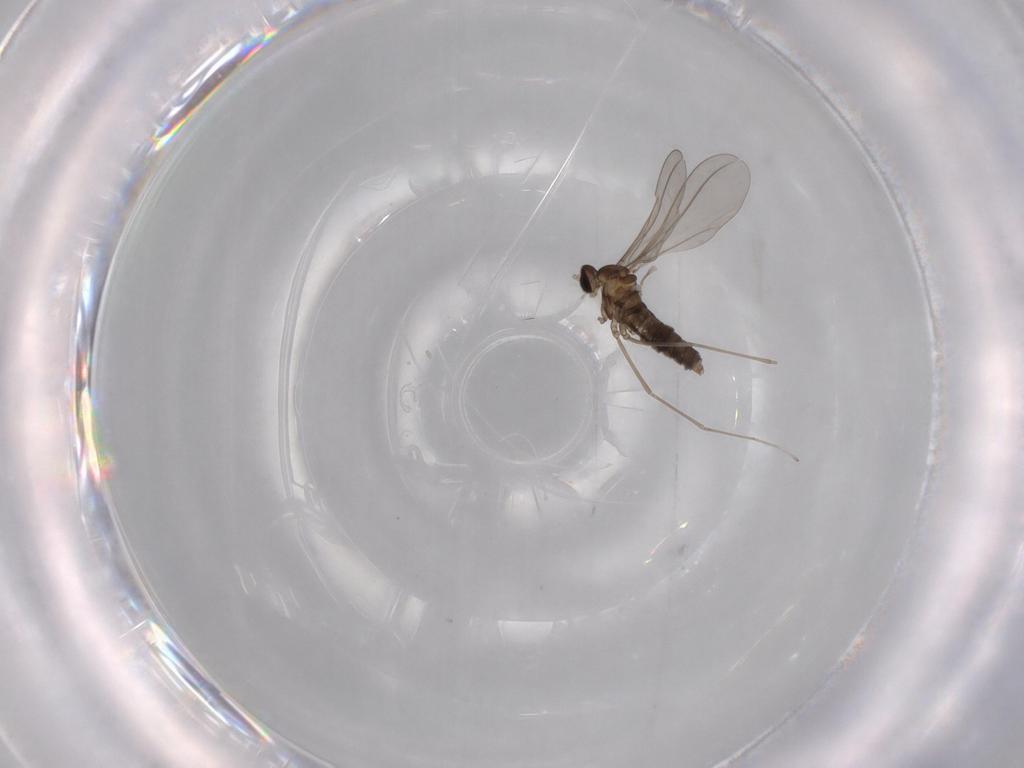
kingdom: Animalia
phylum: Arthropoda
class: Insecta
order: Diptera
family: Cecidomyiidae
